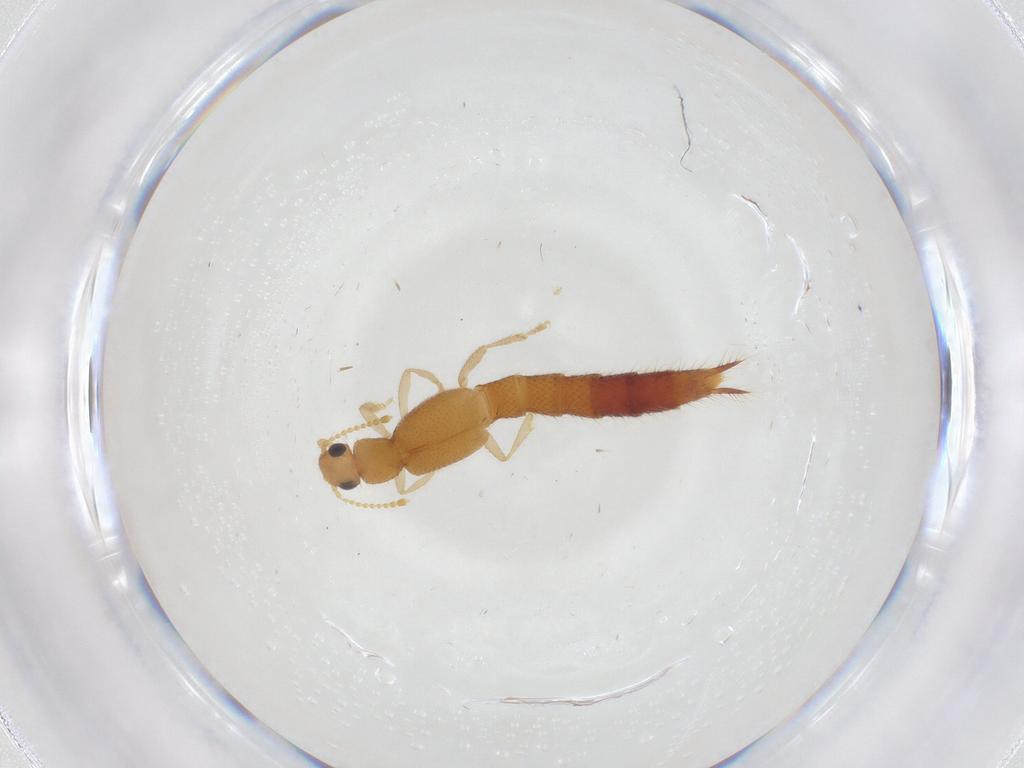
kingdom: Animalia
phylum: Arthropoda
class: Insecta
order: Coleoptera
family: Staphylinidae
